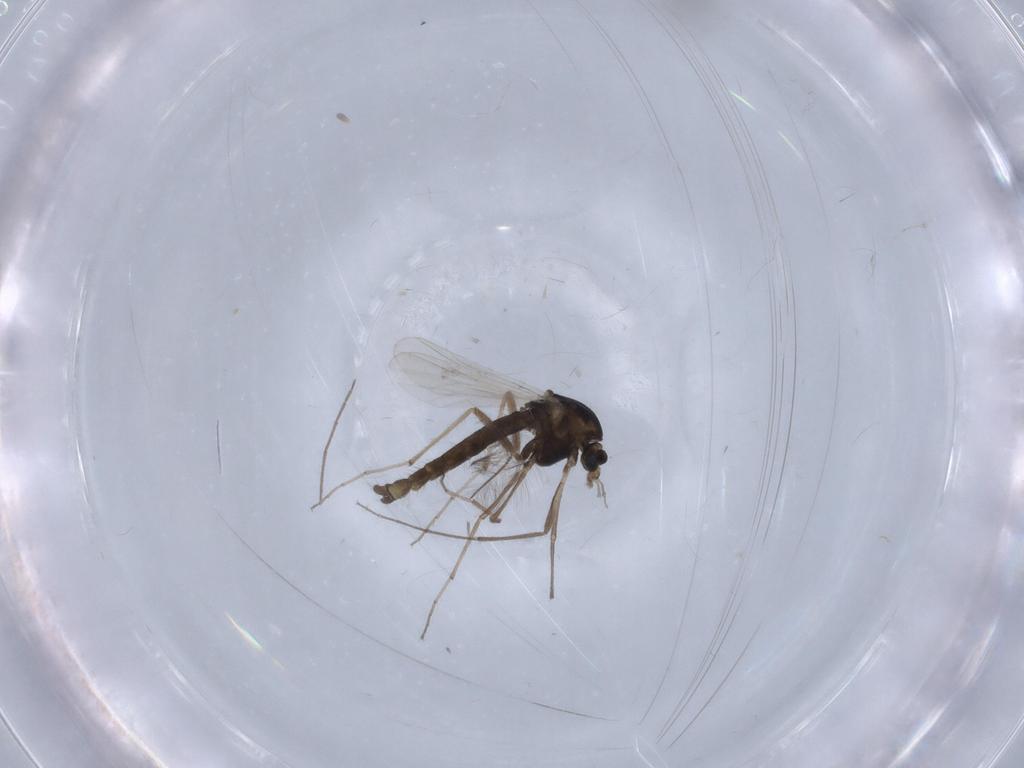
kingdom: Animalia
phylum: Arthropoda
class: Insecta
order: Diptera
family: Chironomidae
